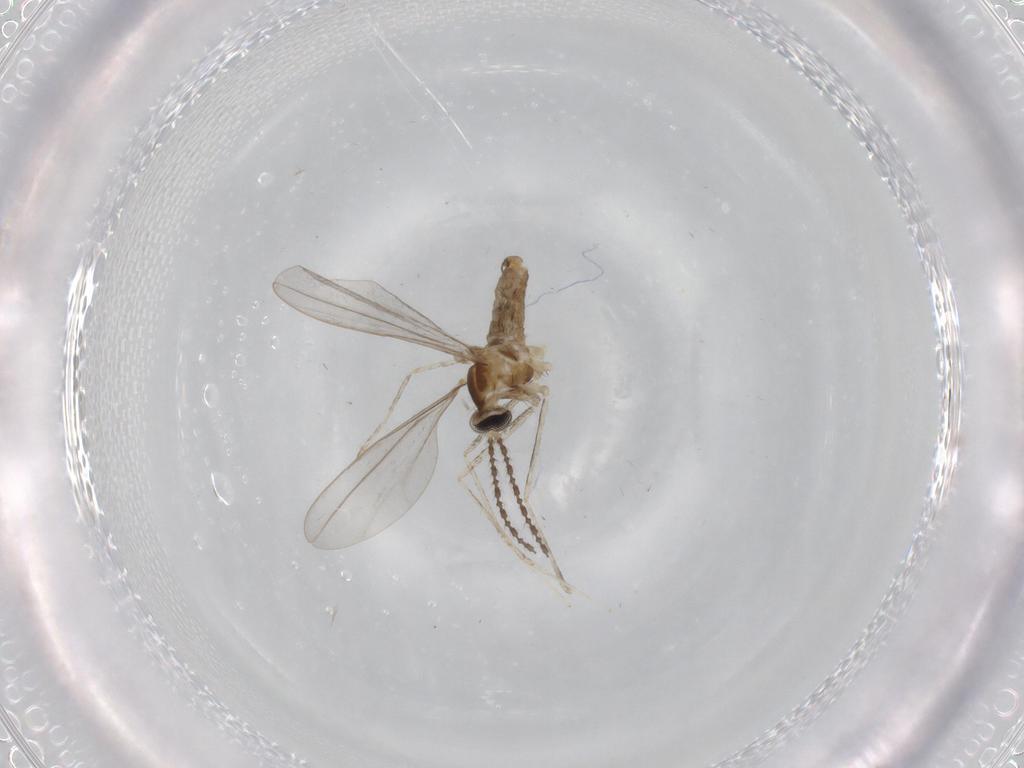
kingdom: Animalia
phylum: Arthropoda
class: Insecta
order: Diptera
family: Cecidomyiidae
